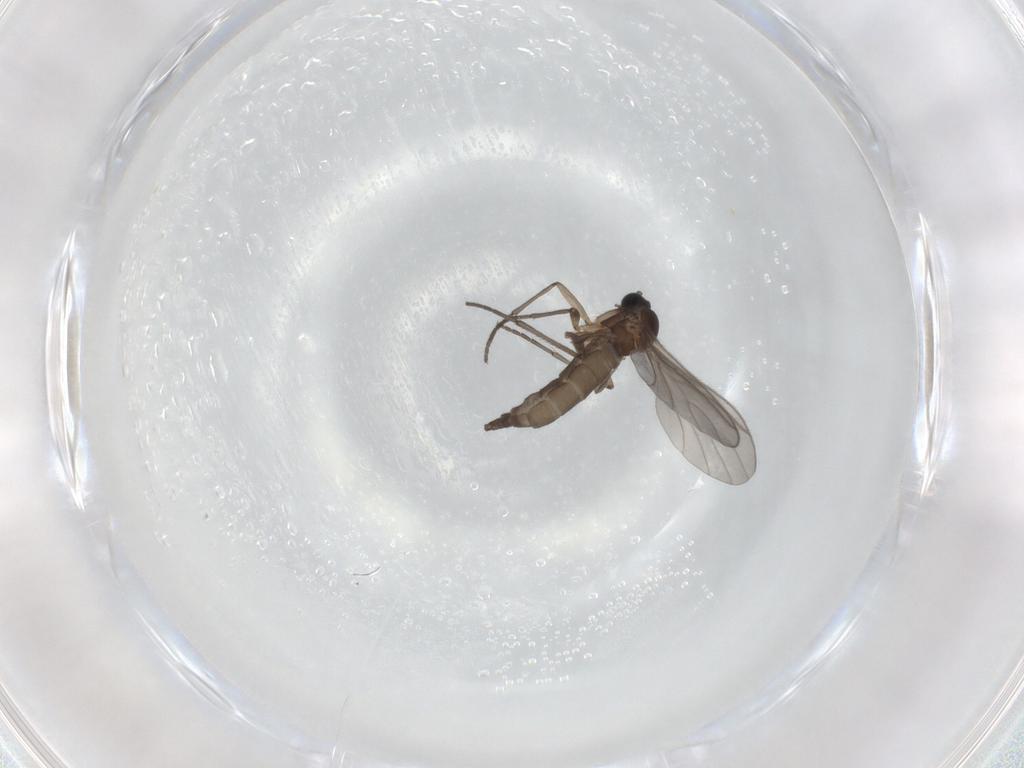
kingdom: Animalia
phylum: Arthropoda
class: Insecta
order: Diptera
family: Sciaridae
